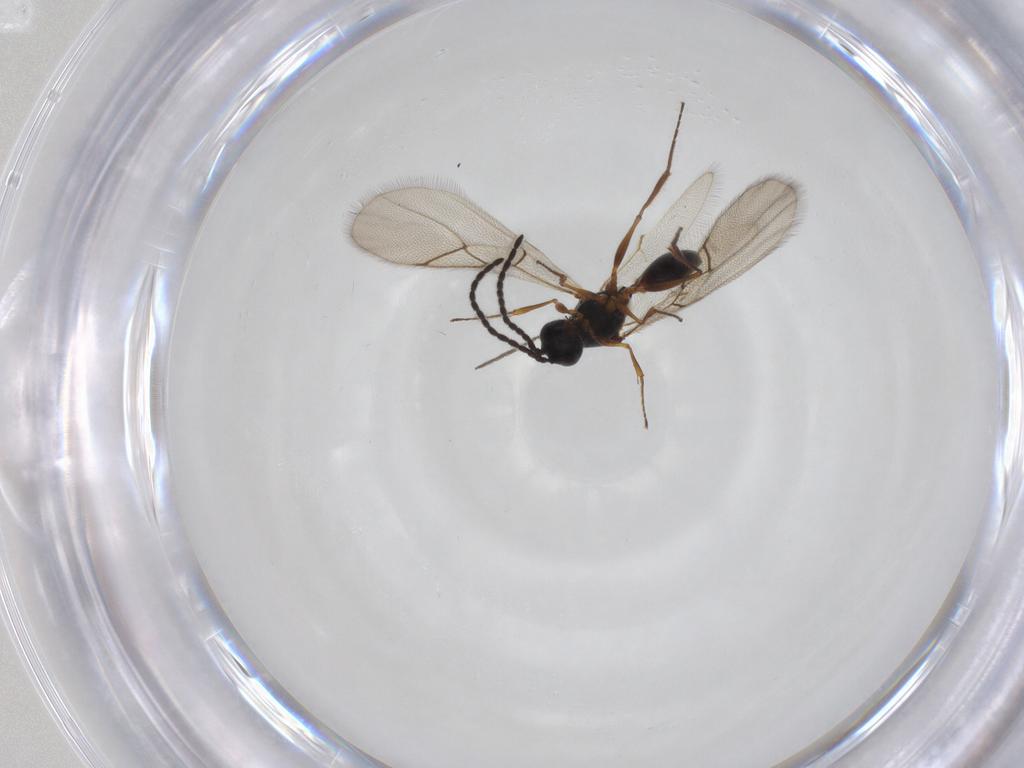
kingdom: Animalia
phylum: Arthropoda
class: Insecta
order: Hymenoptera
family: Figitidae
